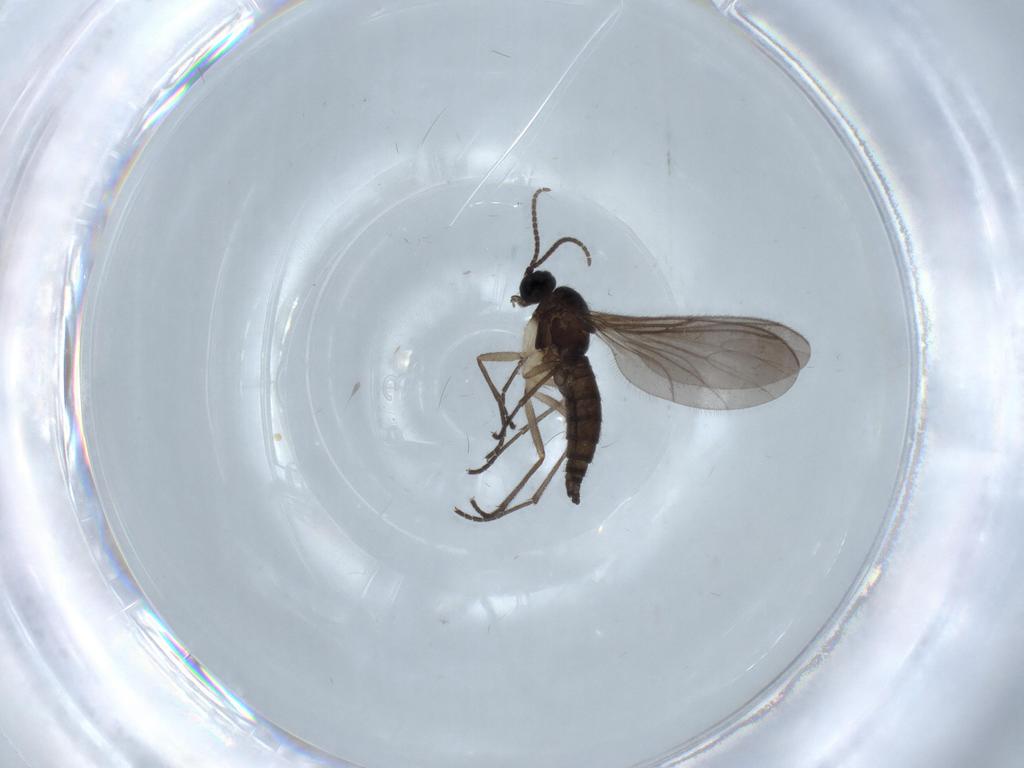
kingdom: Animalia
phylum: Arthropoda
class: Insecta
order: Diptera
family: Sciaridae
